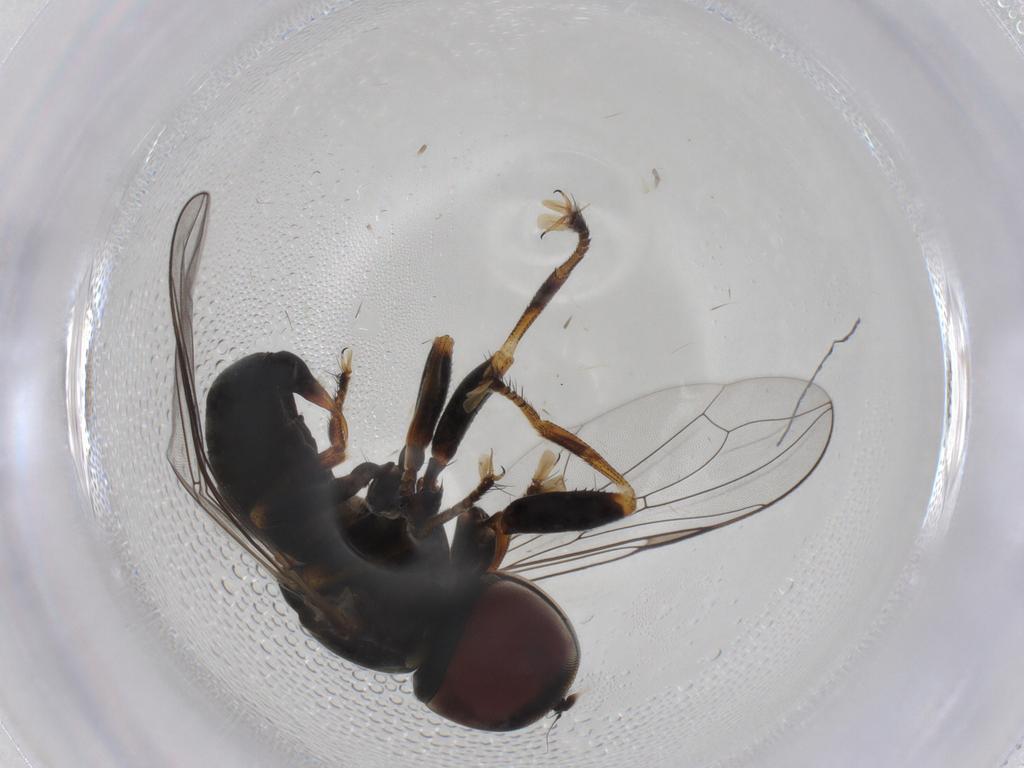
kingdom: Animalia
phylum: Arthropoda
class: Insecta
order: Diptera
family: Pipunculidae
